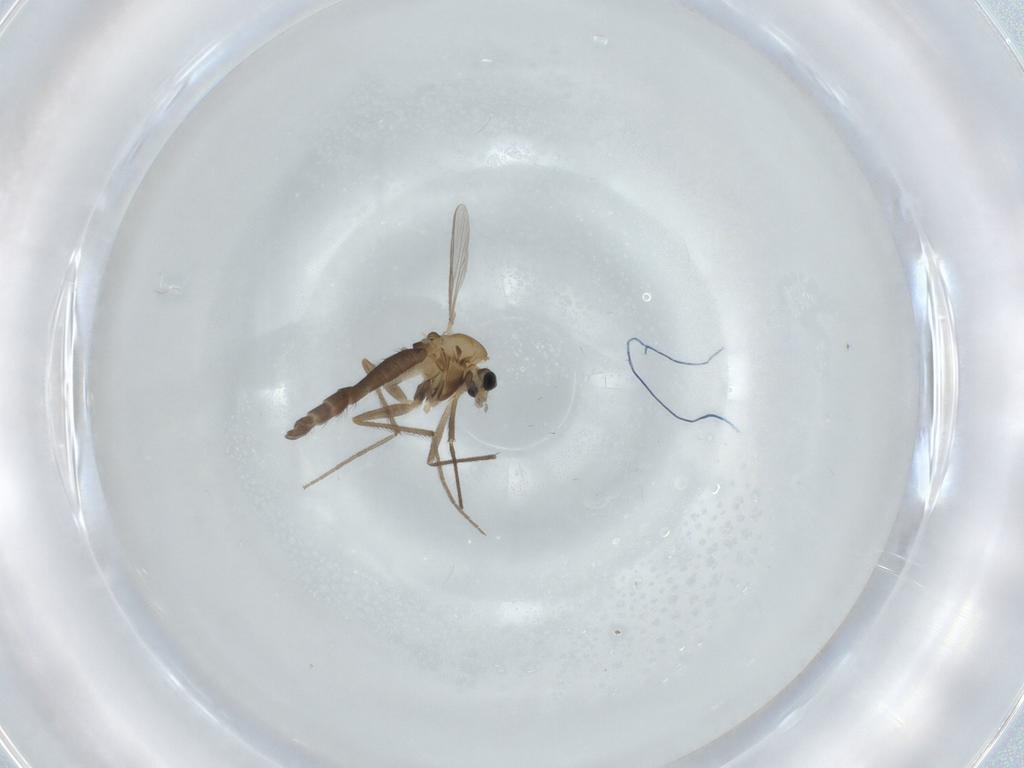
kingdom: Animalia
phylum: Arthropoda
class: Insecta
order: Diptera
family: Chironomidae
